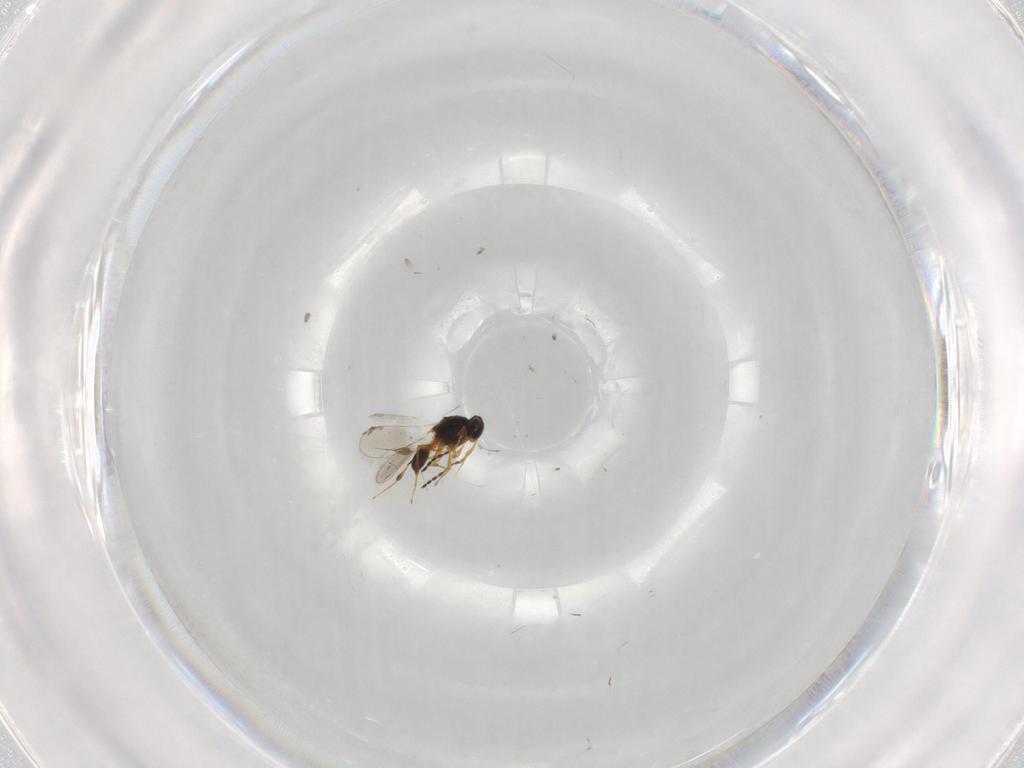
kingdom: Animalia
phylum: Arthropoda
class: Insecta
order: Hymenoptera
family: Platygastridae
